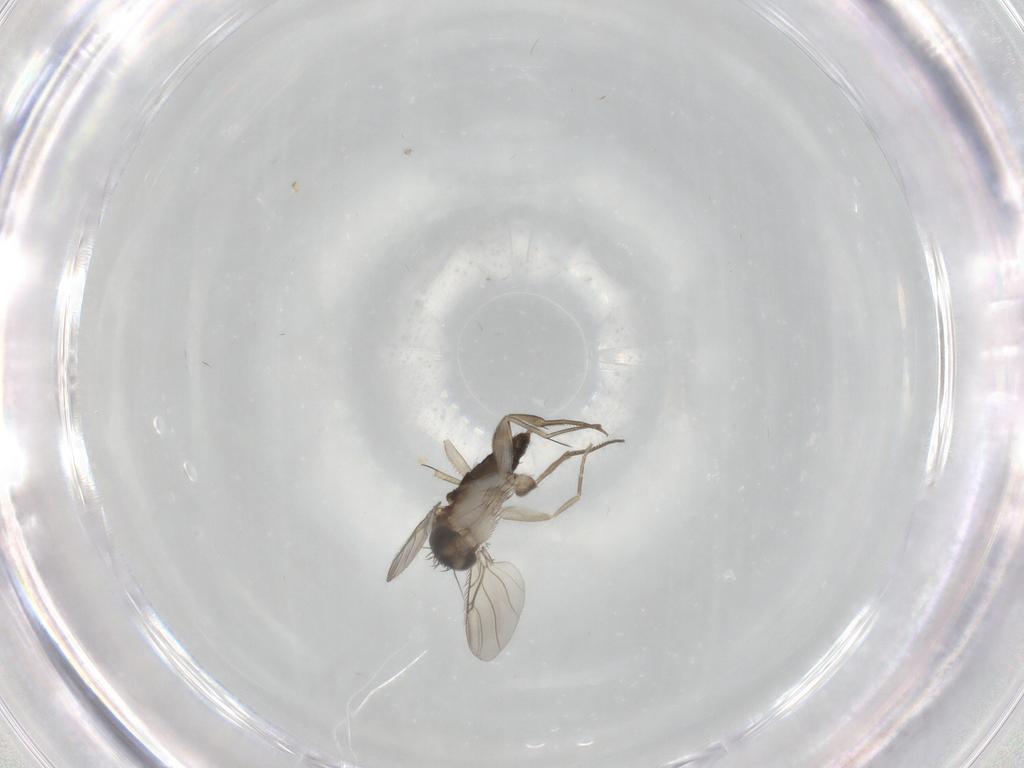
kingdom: Animalia
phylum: Arthropoda
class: Insecta
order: Diptera
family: Phoridae
